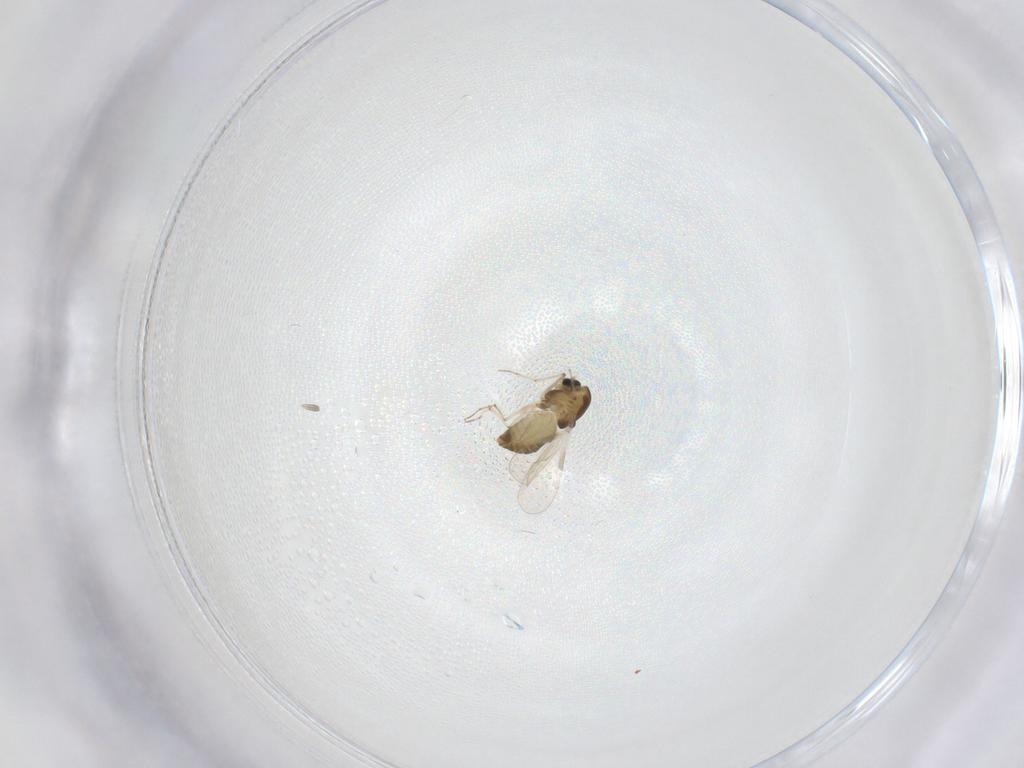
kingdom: Animalia
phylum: Arthropoda
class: Insecta
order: Diptera
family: Chironomidae
